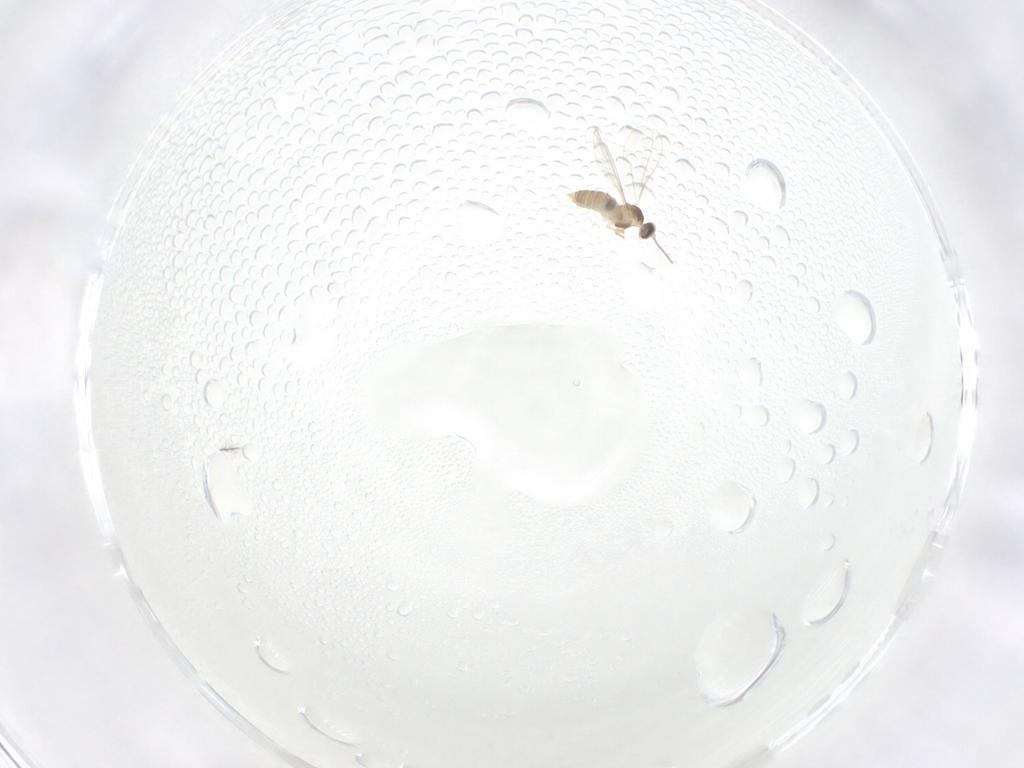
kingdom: Animalia
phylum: Arthropoda
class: Insecta
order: Diptera
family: Cecidomyiidae
